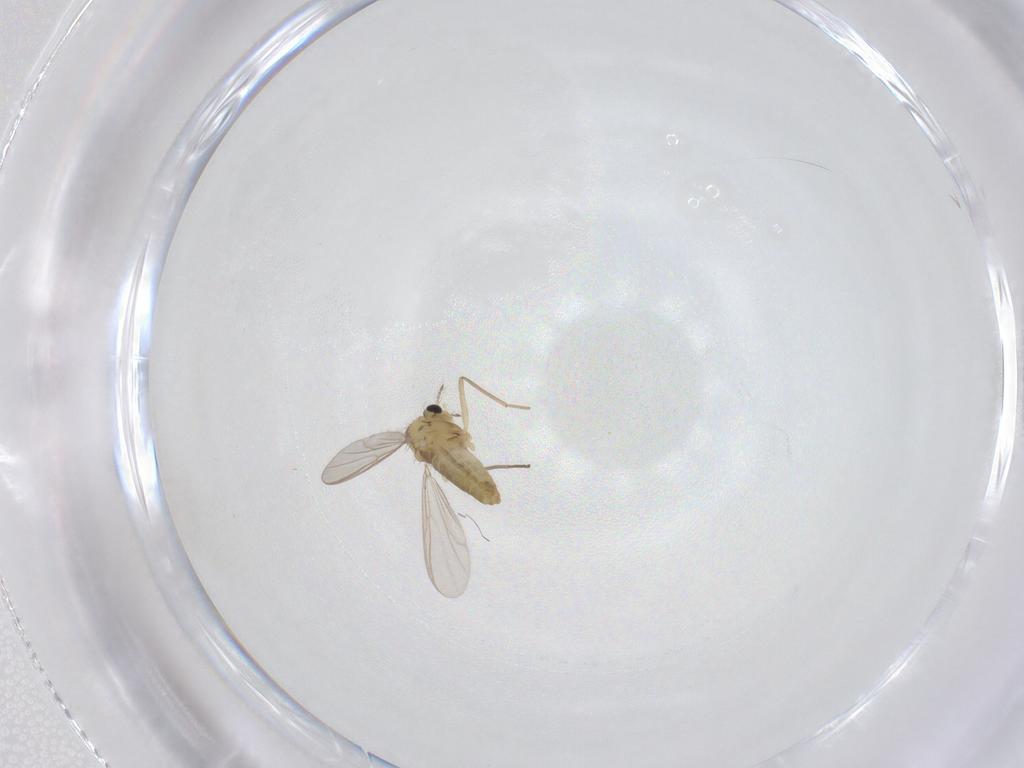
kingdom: Animalia
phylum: Arthropoda
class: Insecta
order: Diptera
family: Chironomidae
